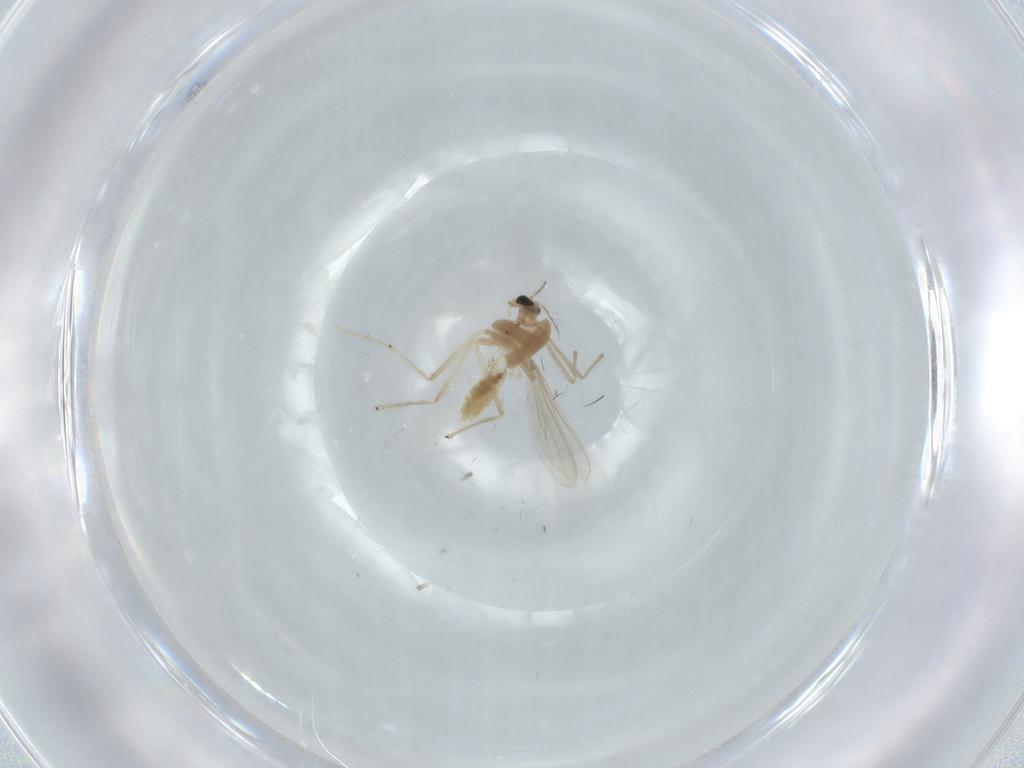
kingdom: Animalia
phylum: Arthropoda
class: Insecta
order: Diptera
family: Chironomidae
